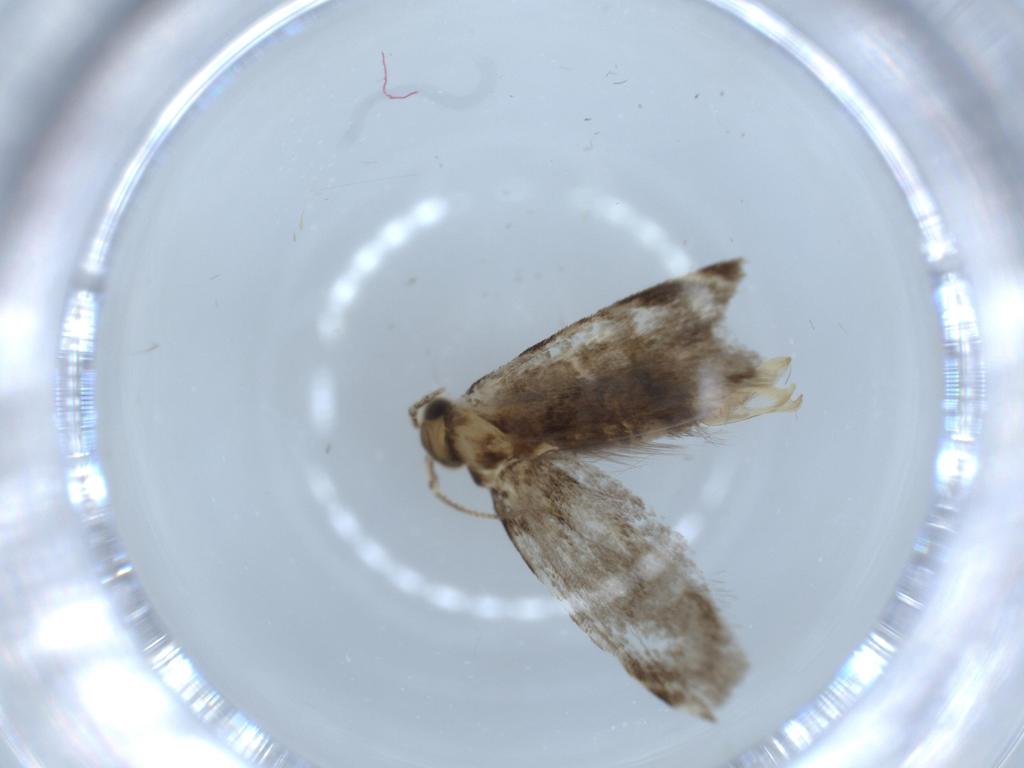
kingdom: Animalia
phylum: Arthropoda
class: Insecta
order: Lepidoptera
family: Tineidae
